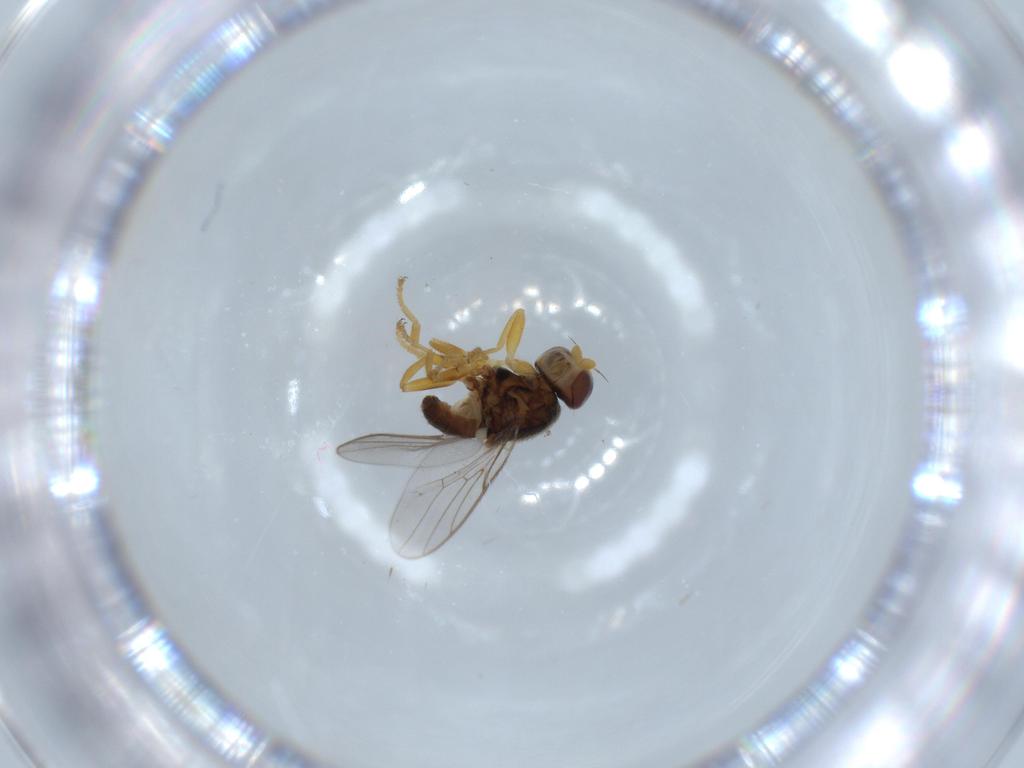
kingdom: Animalia
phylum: Arthropoda
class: Insecta
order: Diptera
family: Chloropidae
